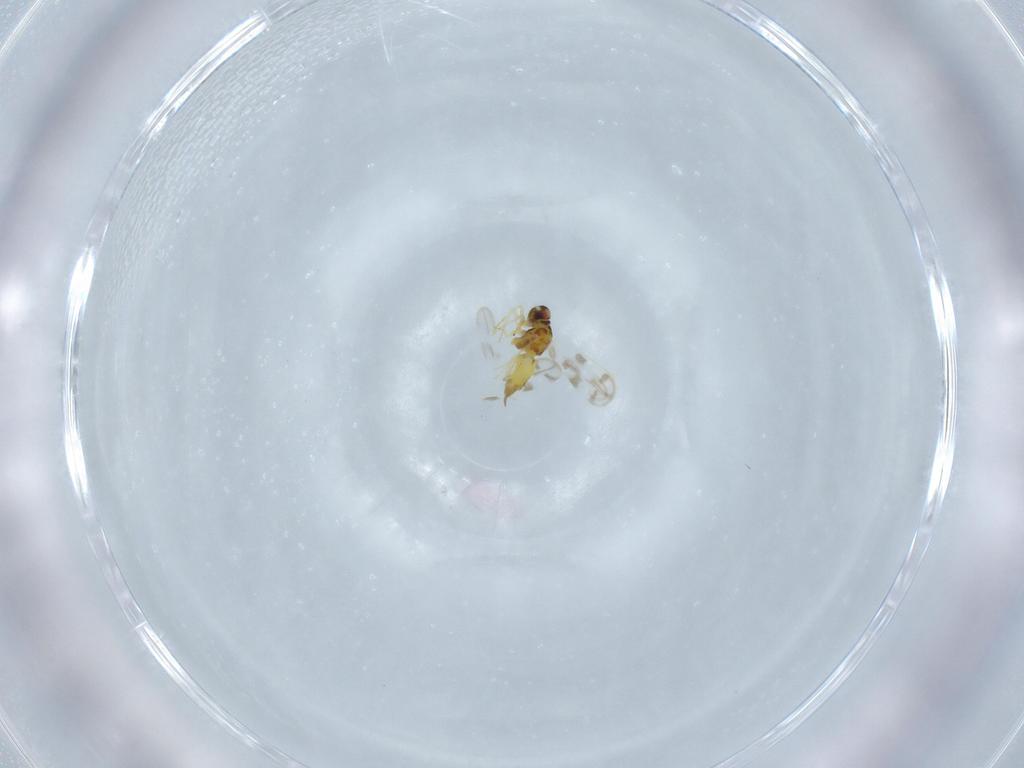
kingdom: Animalia
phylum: Arthropoda
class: Insecta
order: Hemiptera
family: Aleyrodidae
